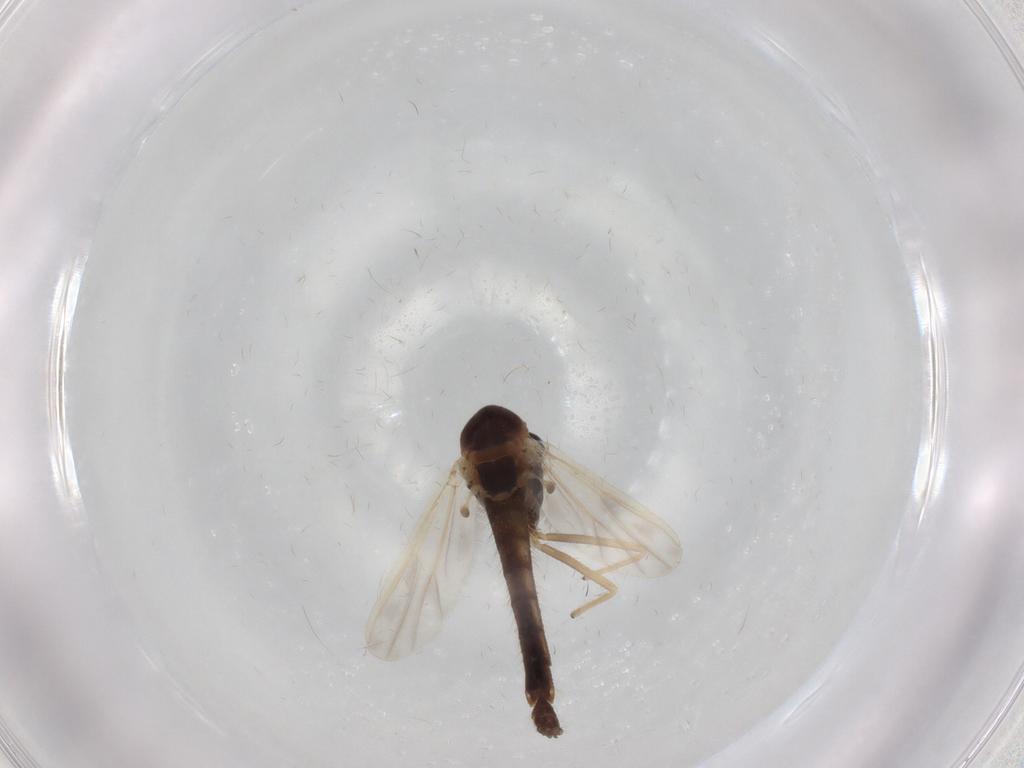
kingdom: Animalia
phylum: Arthropoda
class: Insecta
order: Diptera
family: Chironomidae
